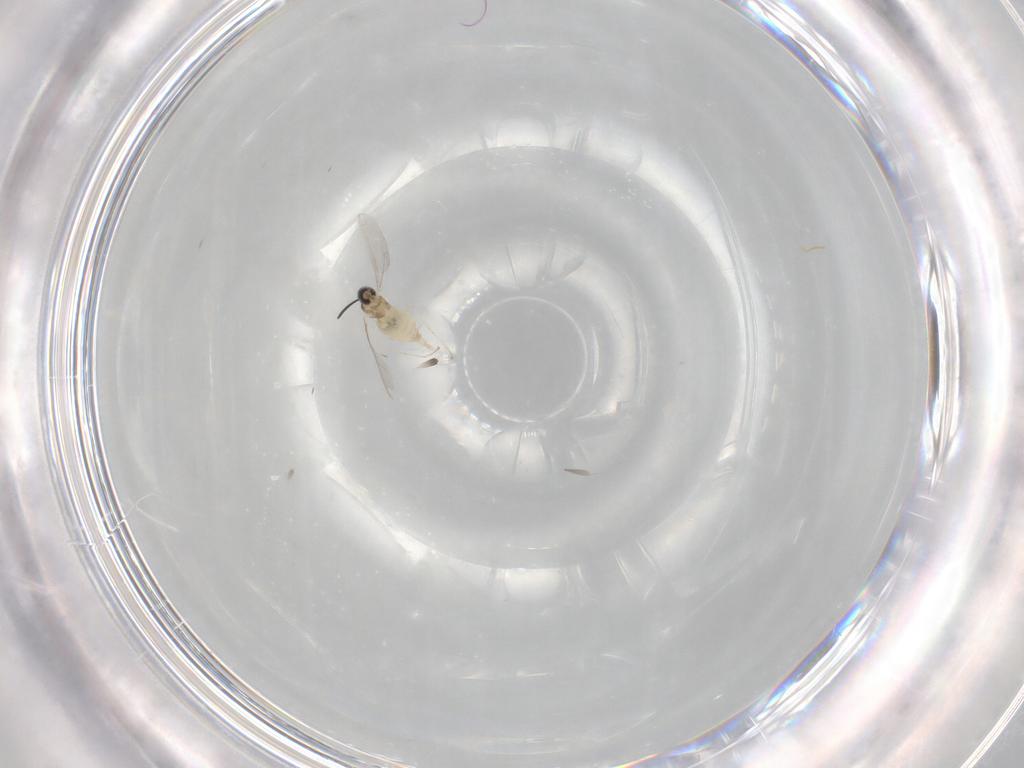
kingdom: Animalia
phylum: Arthropoda
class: Insecta
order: Diptera
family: Cecidomyiidae
